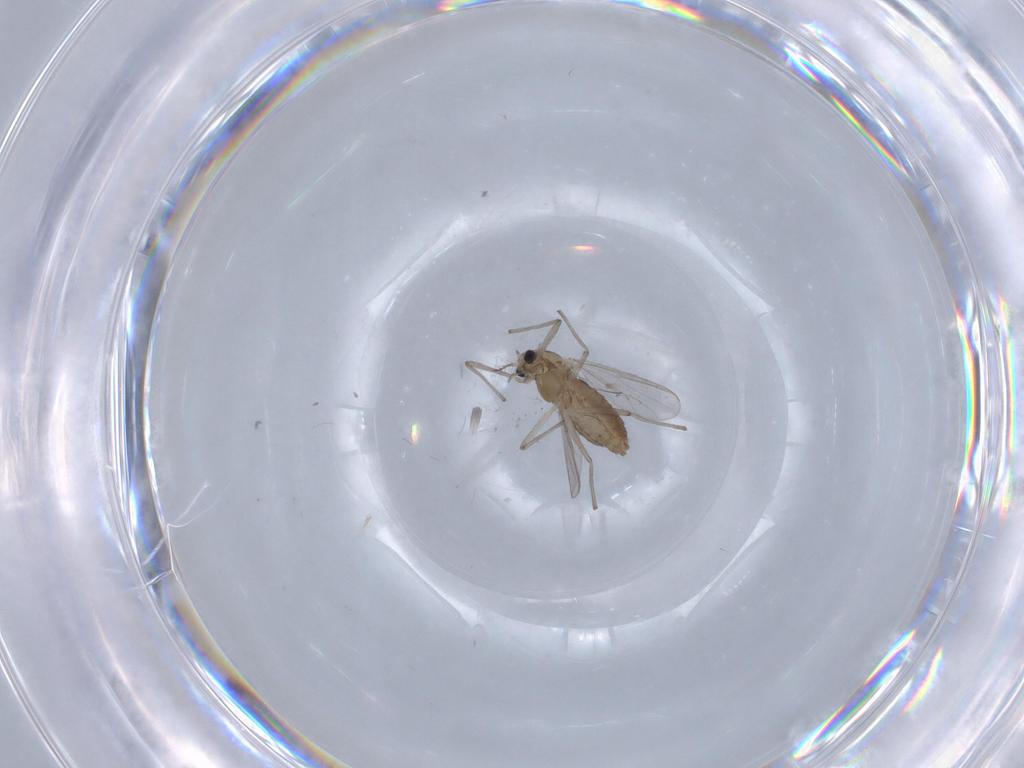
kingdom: Animalia
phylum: Arthropoda
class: Insecta
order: Diptera
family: Chironomidae
